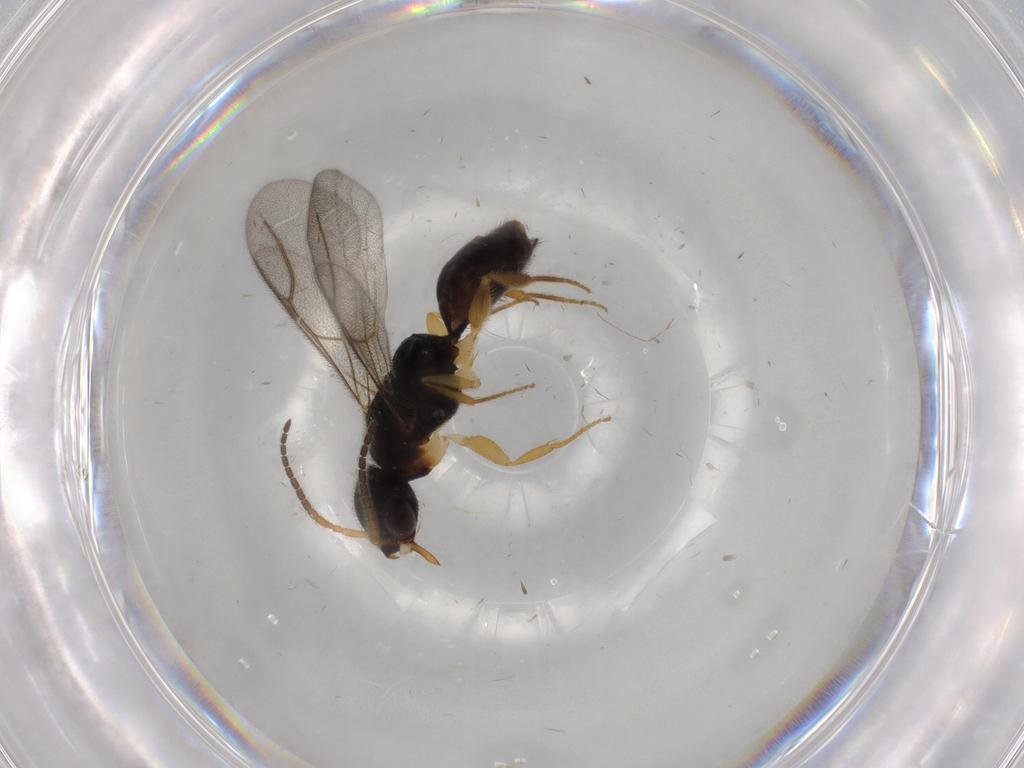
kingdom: Animalia
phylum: Arthropoda
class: Insecta
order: Hymenoptera
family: Bethylidae
